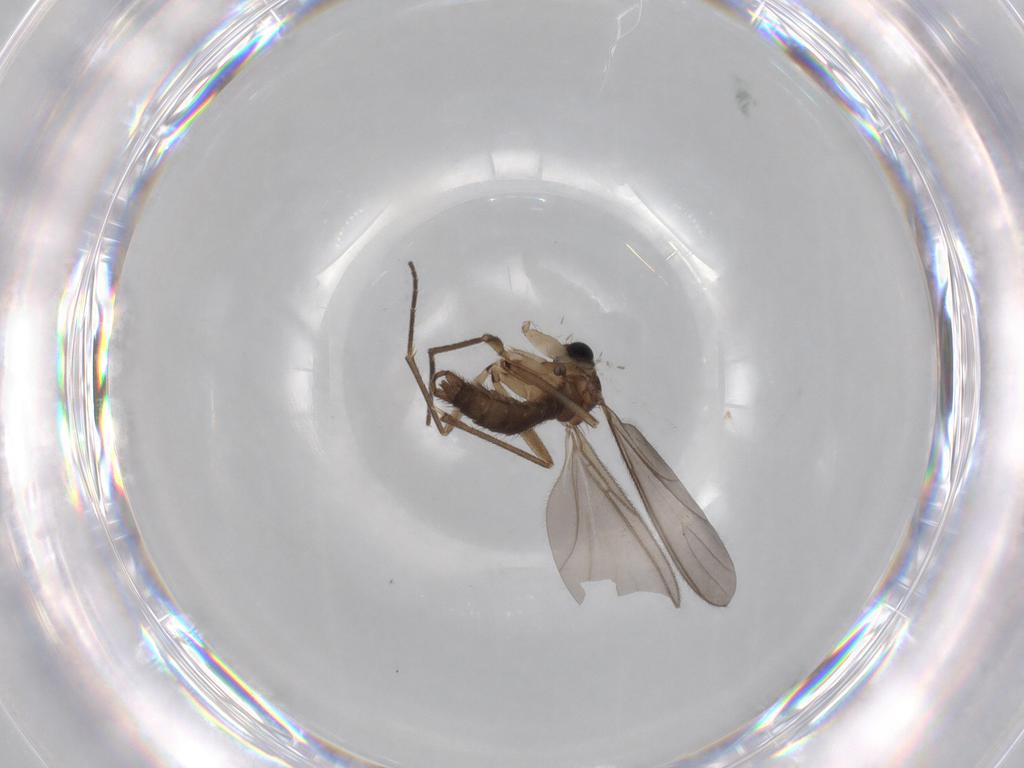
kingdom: Animalia
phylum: Arthropoda
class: Insecta
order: Diptera
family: Sciaridae
